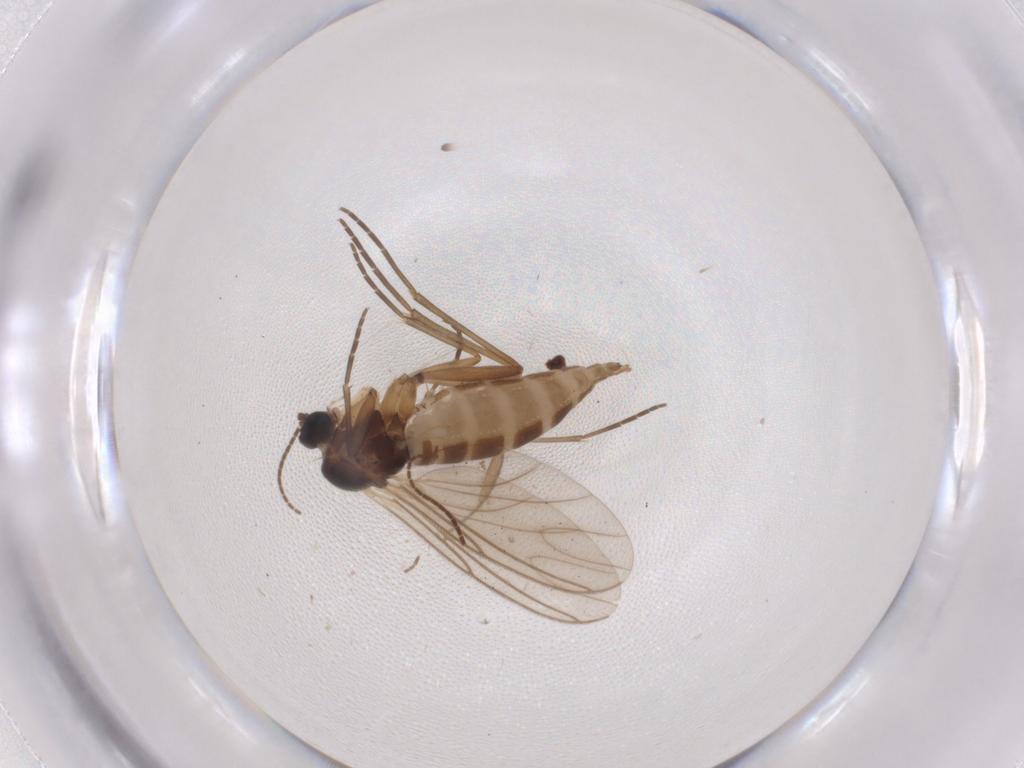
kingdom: Animalia
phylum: Arthropoda
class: Insecta
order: Diptera
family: Sciaridae
